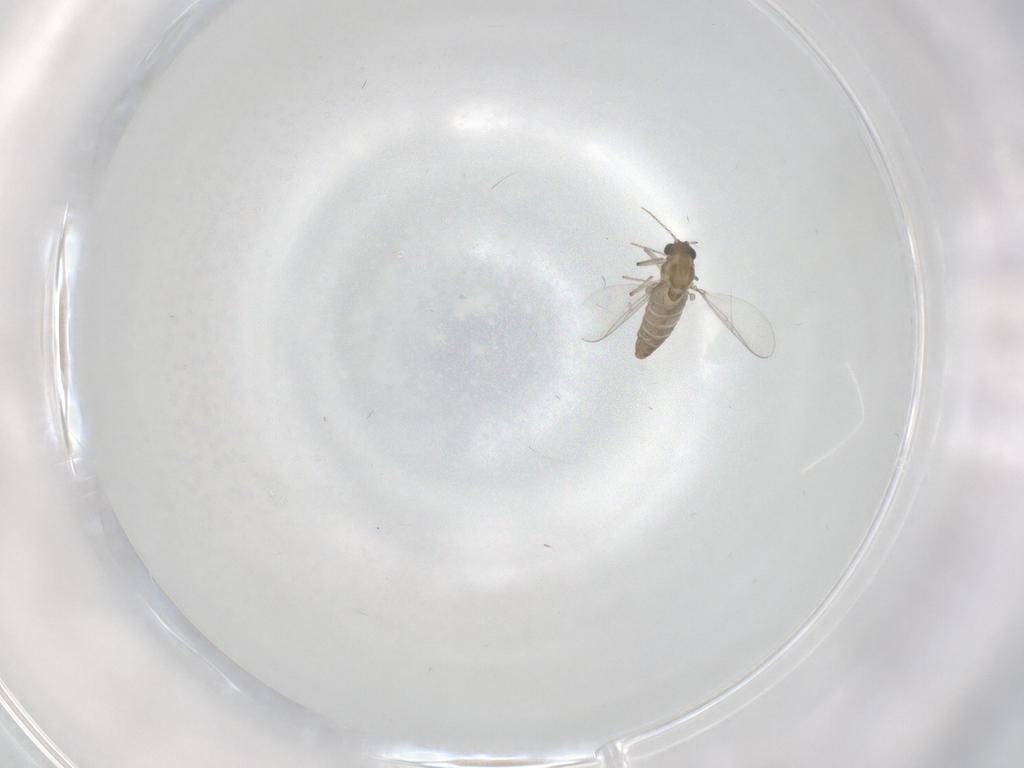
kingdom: Animalia
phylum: Arthropoda
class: Insecta
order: Diptera
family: Chironomidae
